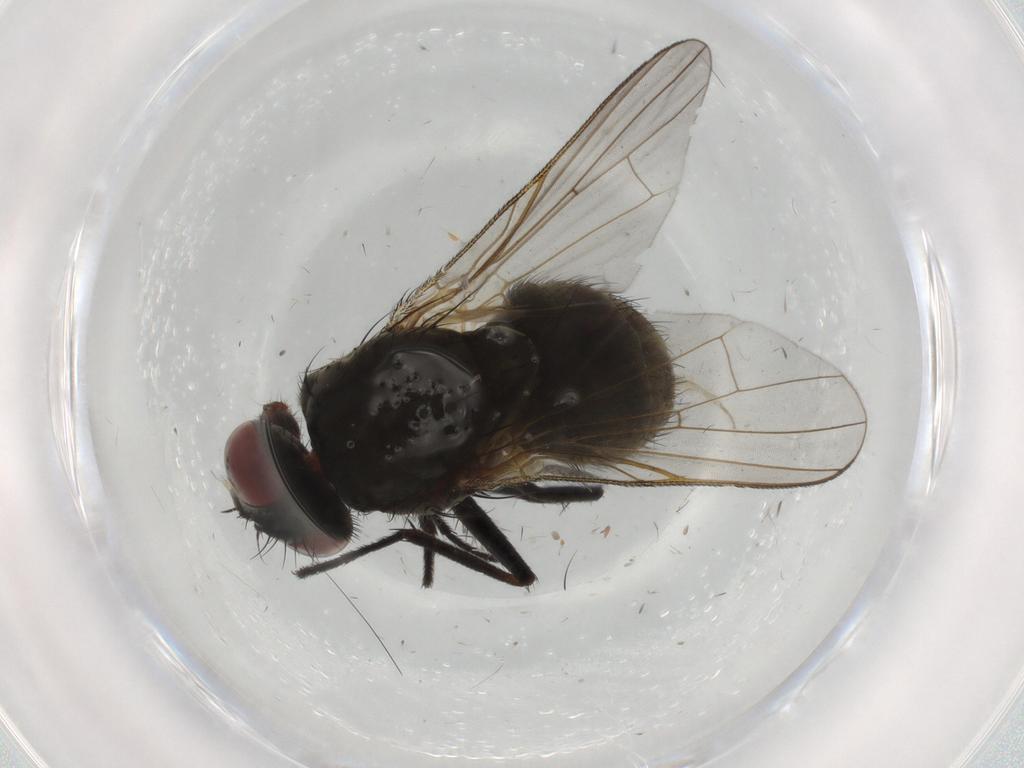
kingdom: Animalia
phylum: Arthropoda
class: Insecta
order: Diptera
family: Muscidae
